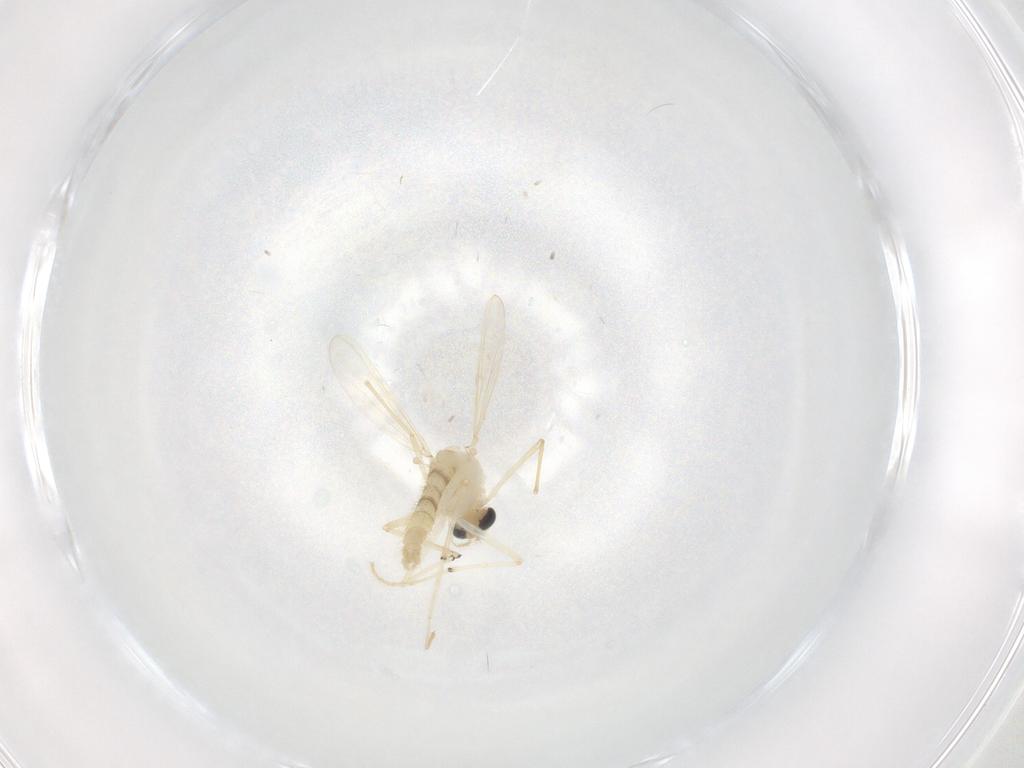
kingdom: Animalia
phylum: Arthropoda
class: Insecta
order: Diptera
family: Chironomidae
